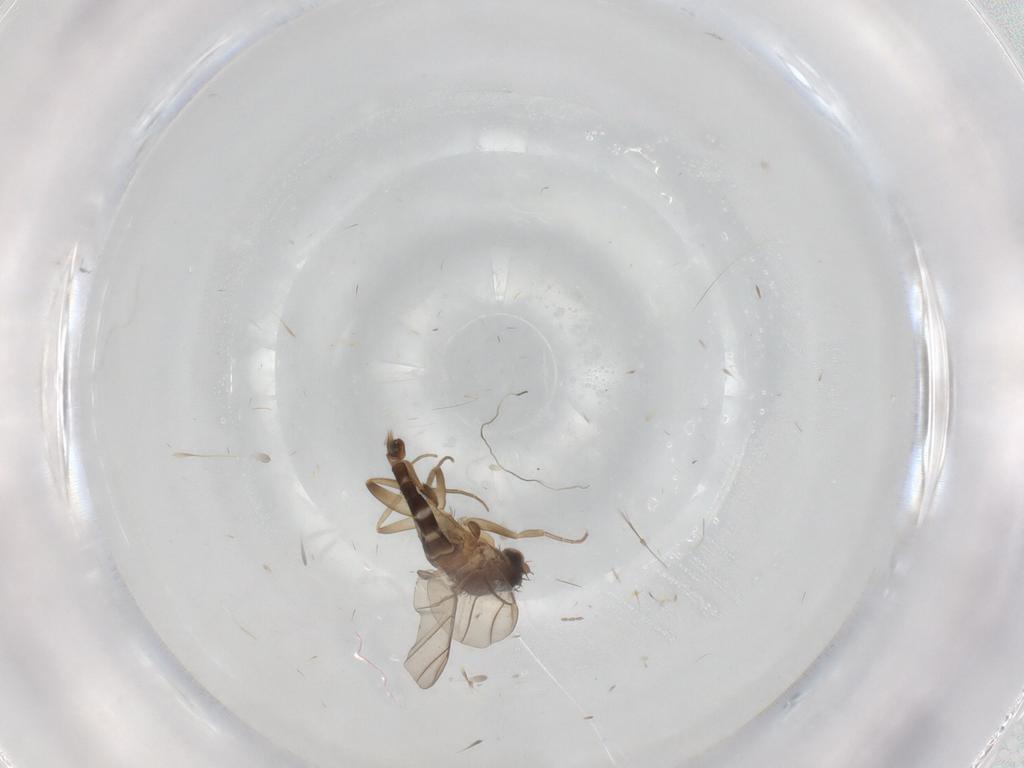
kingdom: Animalia
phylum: Arthropoda
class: Insecta
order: Diptera
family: Phoridae
